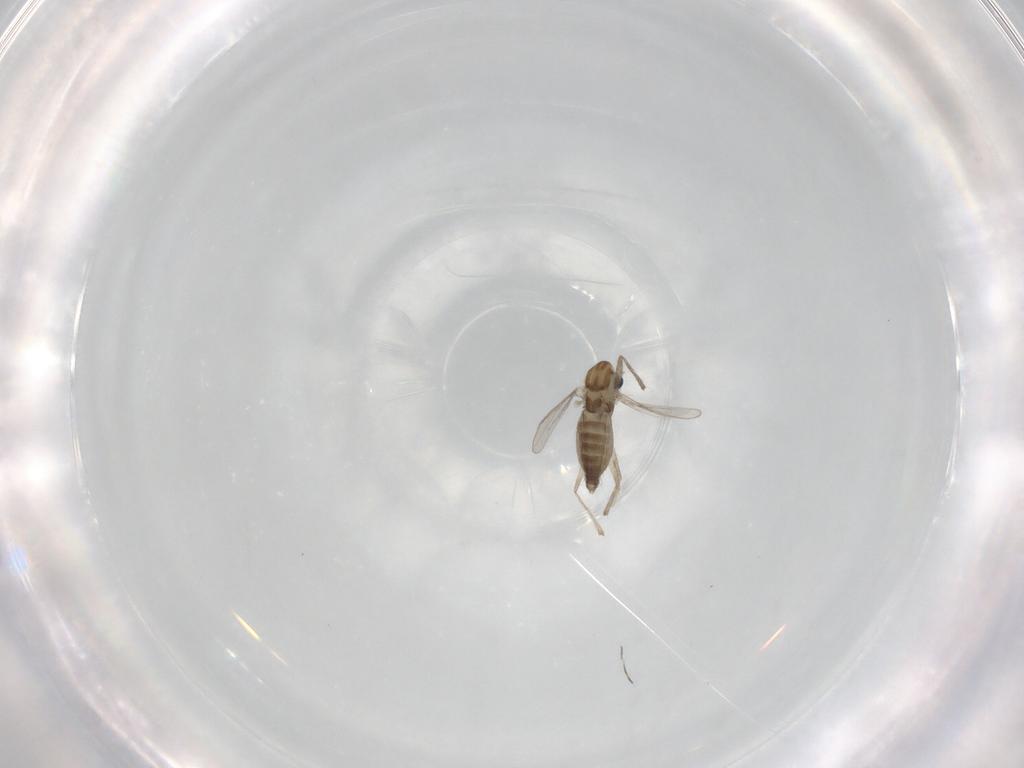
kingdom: Animalia
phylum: Arthropoda
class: Insecta
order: Diptera
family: Chironomidae
